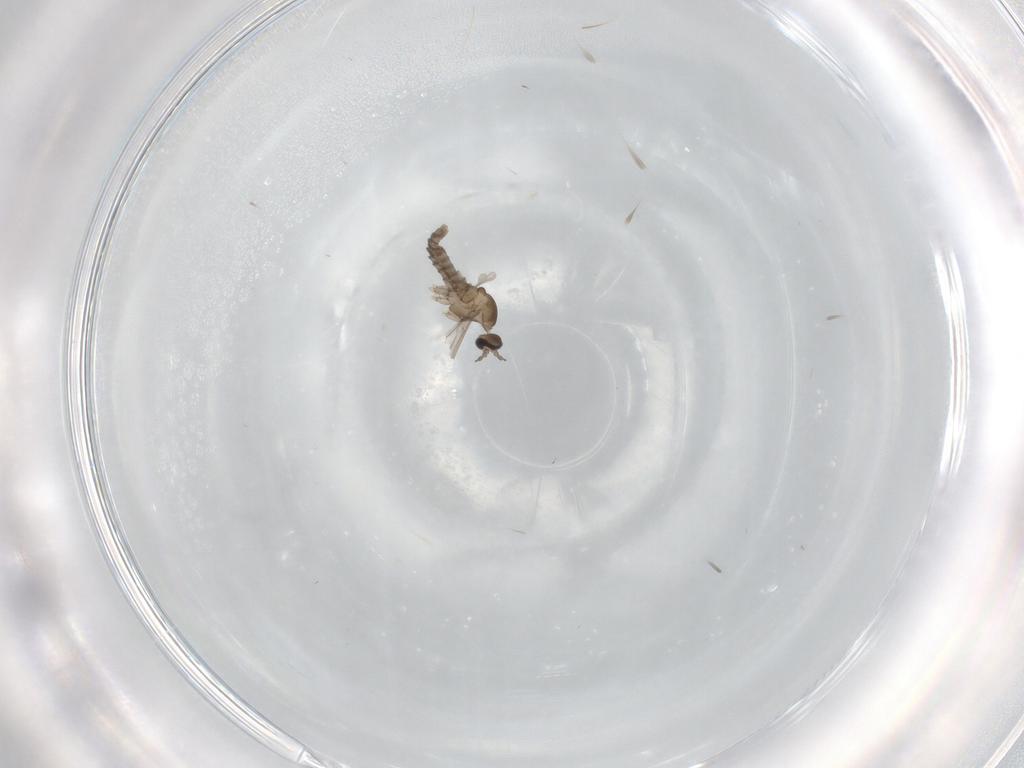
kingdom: Animalia
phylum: Arthropoda
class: Insecta
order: Diptera
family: Cecidomyiidae
